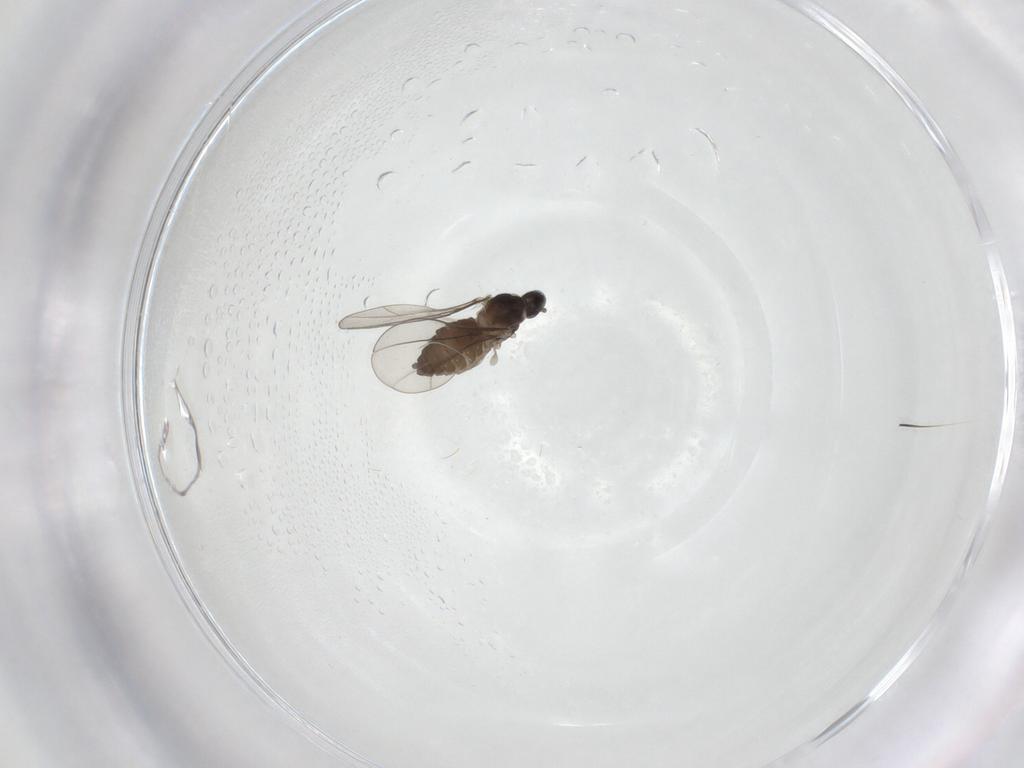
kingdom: Animalia
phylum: Arthropoda
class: Insecta
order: Diptera
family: Cecidomyiidae
